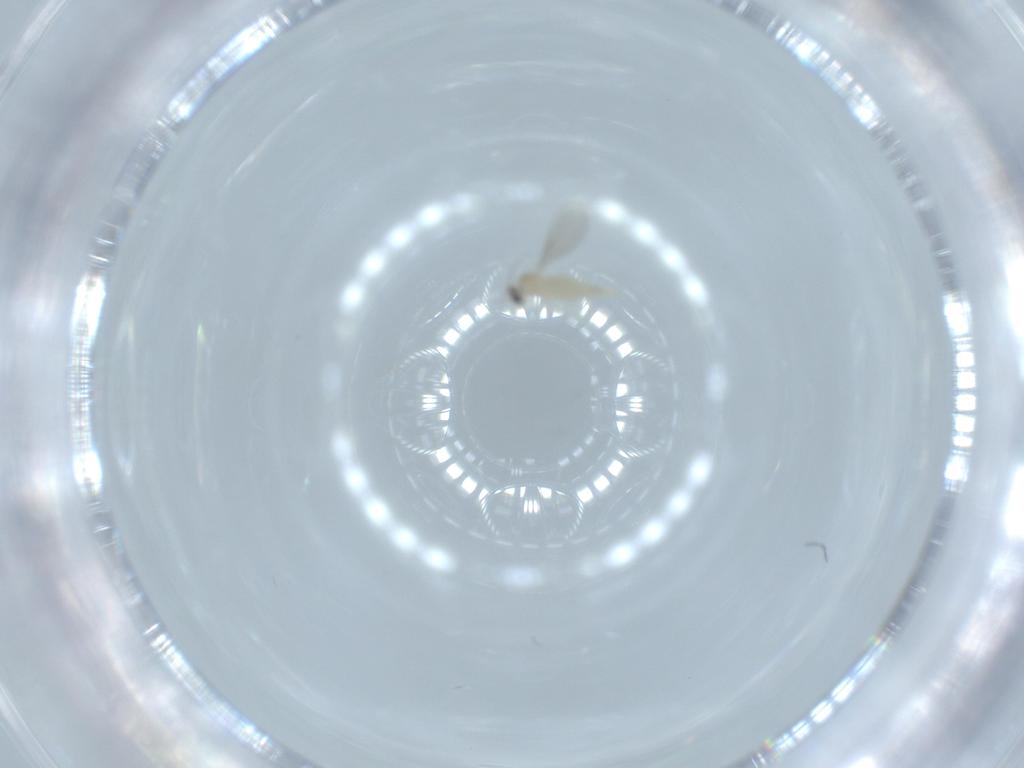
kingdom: Animalia
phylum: Arthropoda
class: Insecta
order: Diptera
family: Cecidomyiidae
